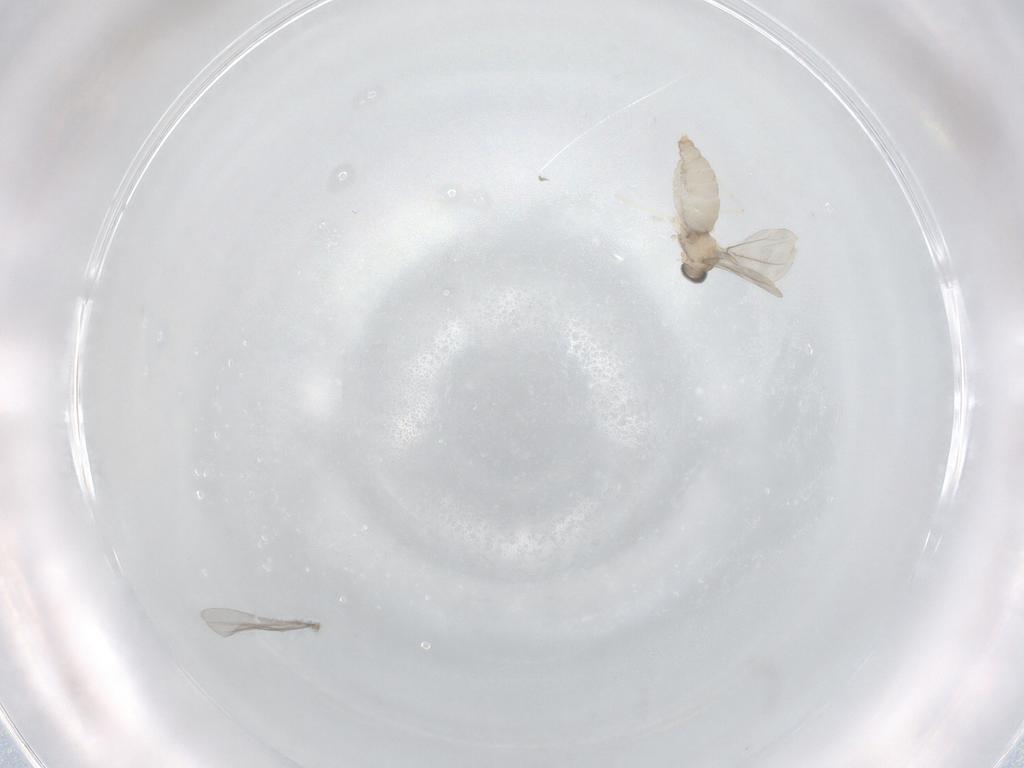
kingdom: Animalia
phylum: Arthropoda
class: Insecta
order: Diptera
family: Cecidomyiidae
